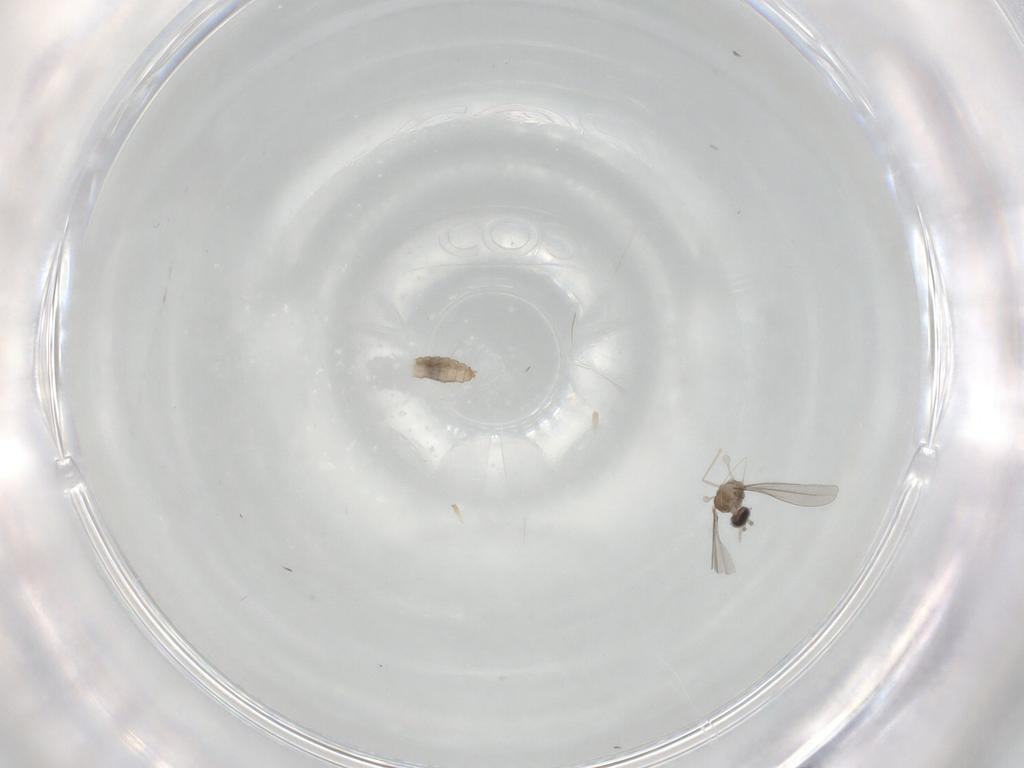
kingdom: Animalia
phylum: Arthropoda
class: Insecta
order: Diptera
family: Cecidomyiidae
